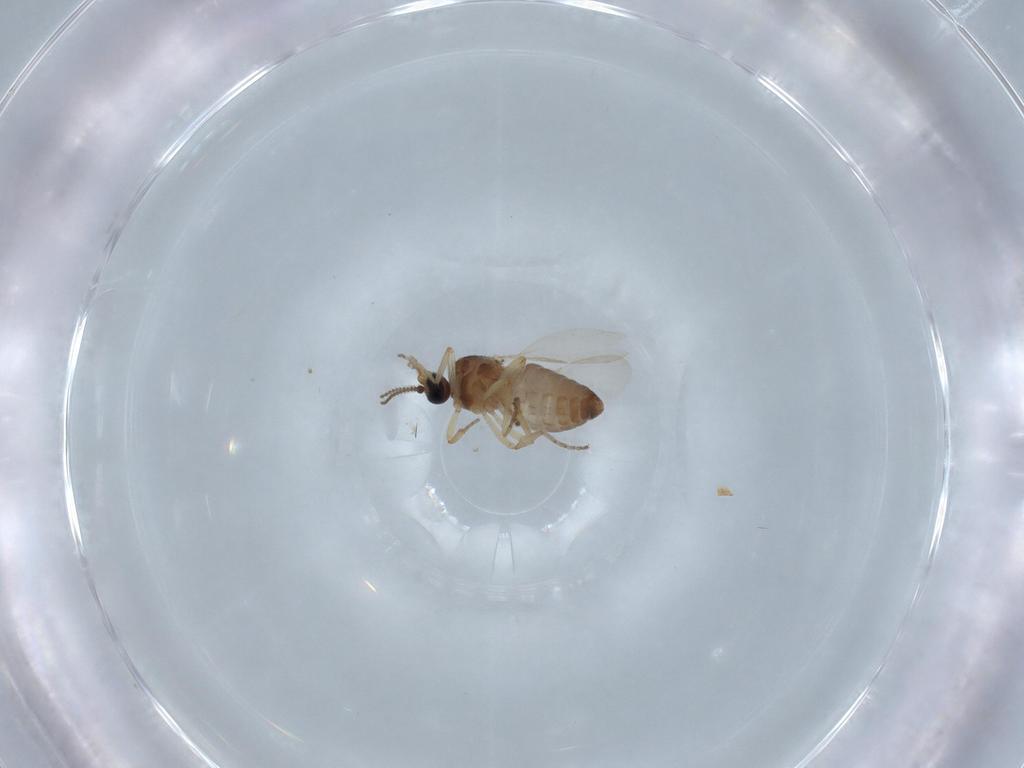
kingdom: Animalia
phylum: Arthropoda
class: Insecta
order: Diptera
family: Ceratopogonidae
